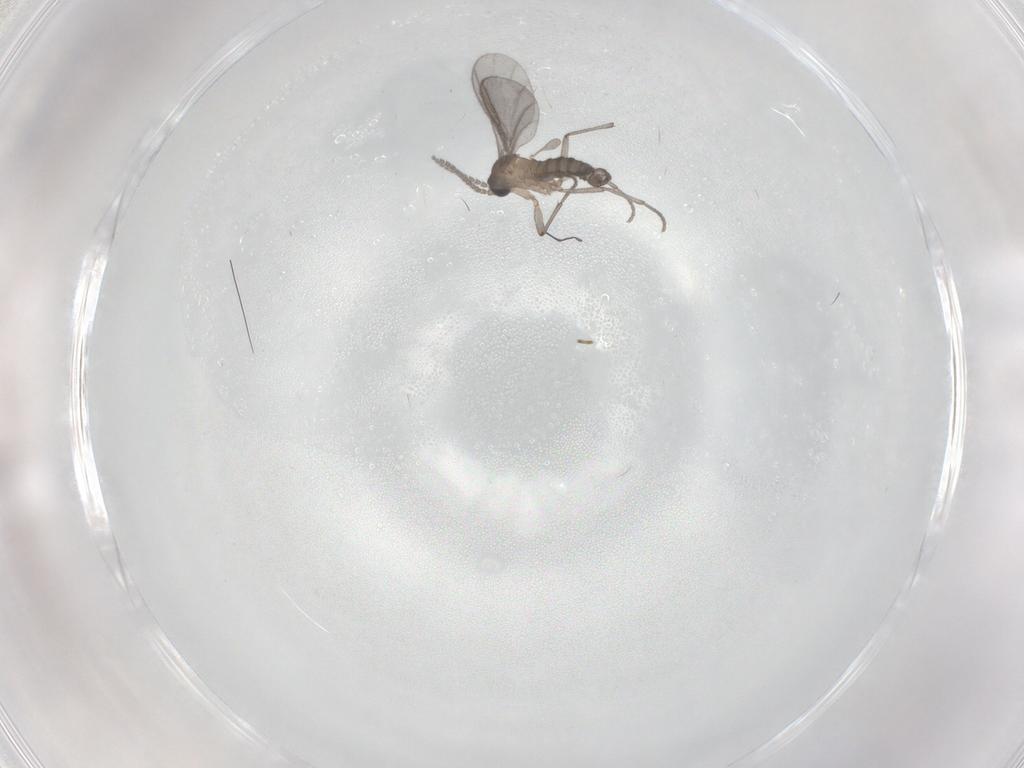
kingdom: Animalia
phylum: Arthropoda
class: Insecta
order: Diptera
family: Sciaridae
